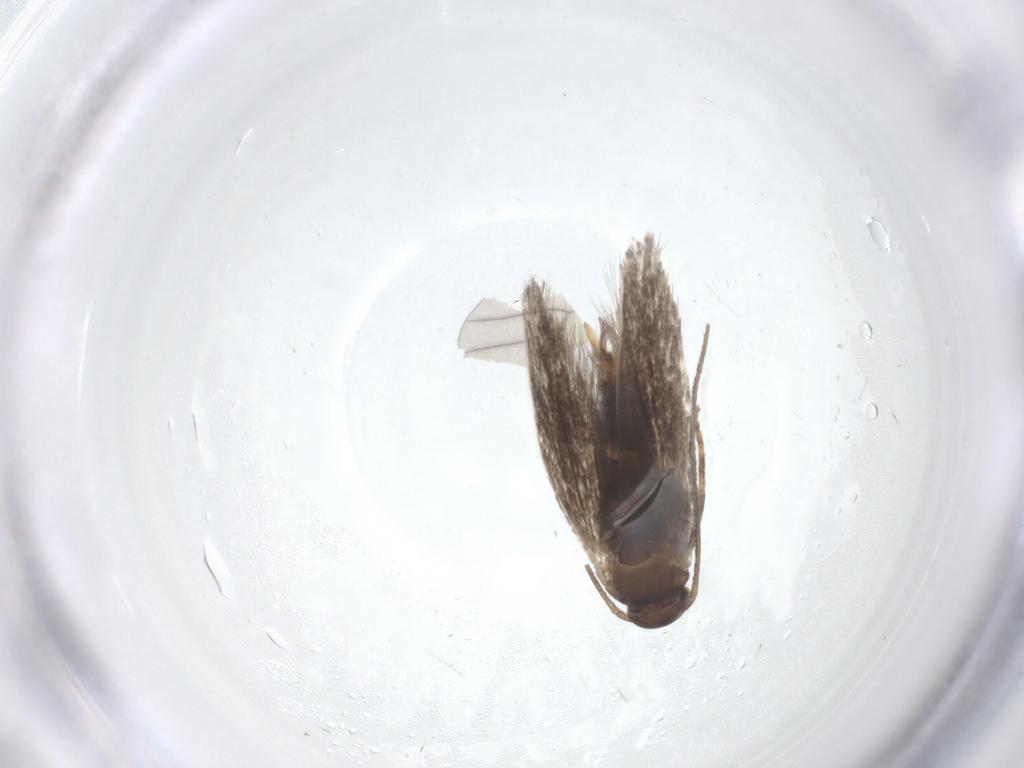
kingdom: Animalia
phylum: Arthropoda
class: Insecta
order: Lepidoptera
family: Elachistidae
